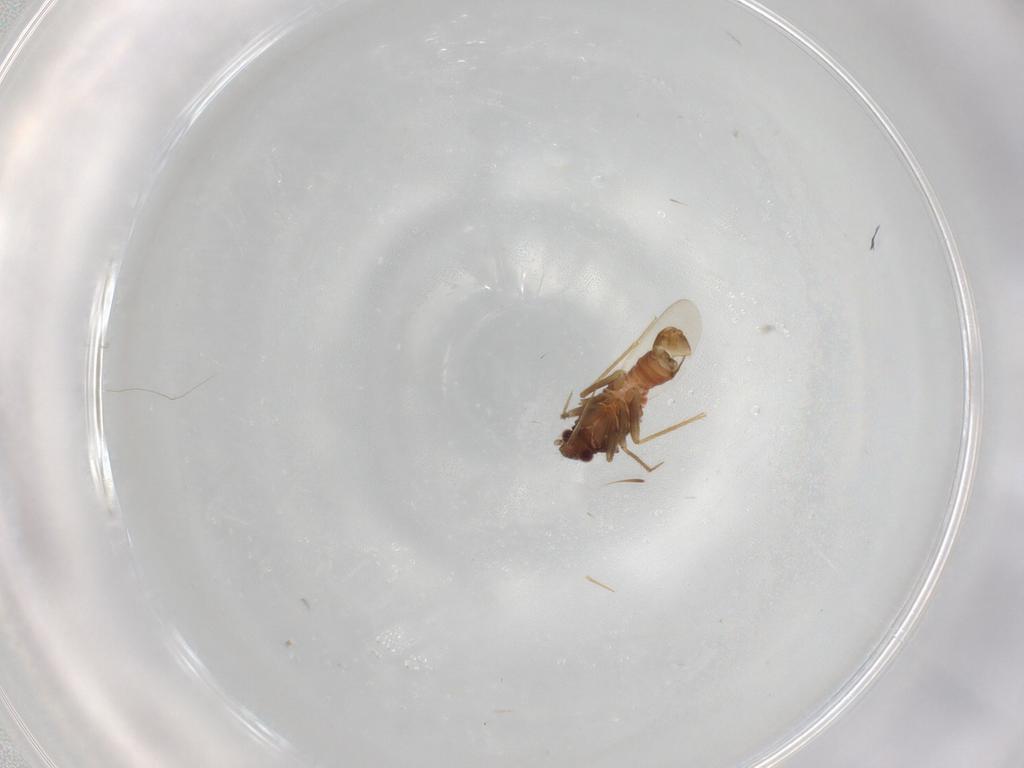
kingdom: Animalia
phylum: Arthropoda
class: Insecta
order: Hemiptera
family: Ceratocombidae
